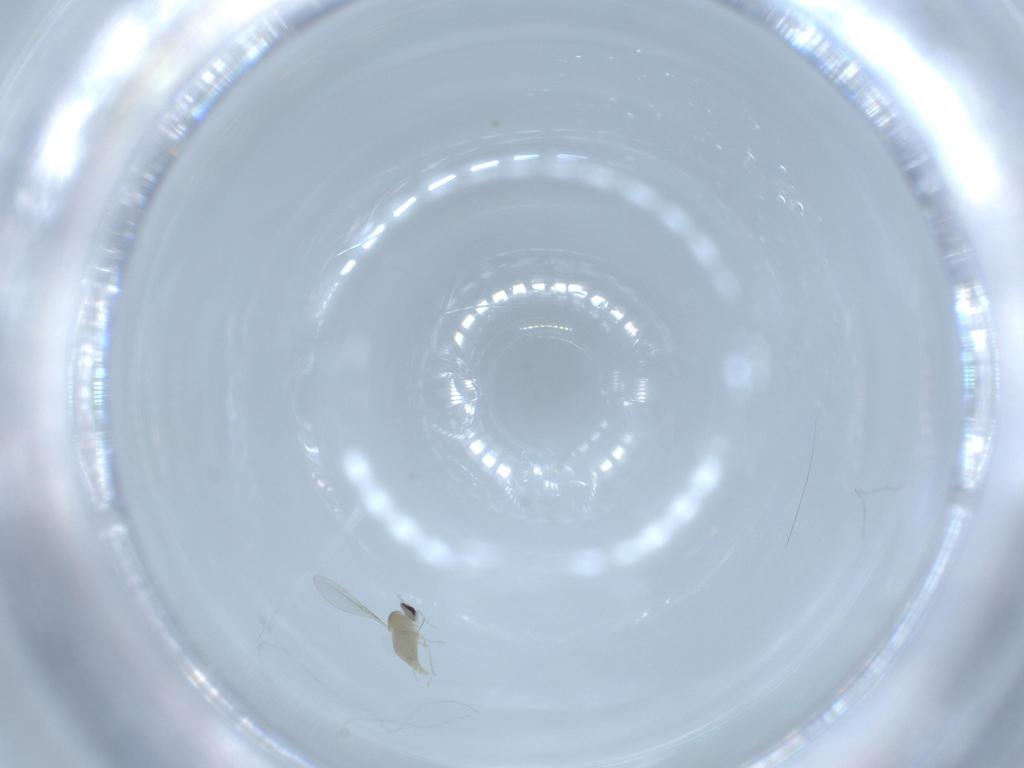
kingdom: Animalia
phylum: Arthropoda
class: Insecta
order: Diptera
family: Cecidomyiidae
